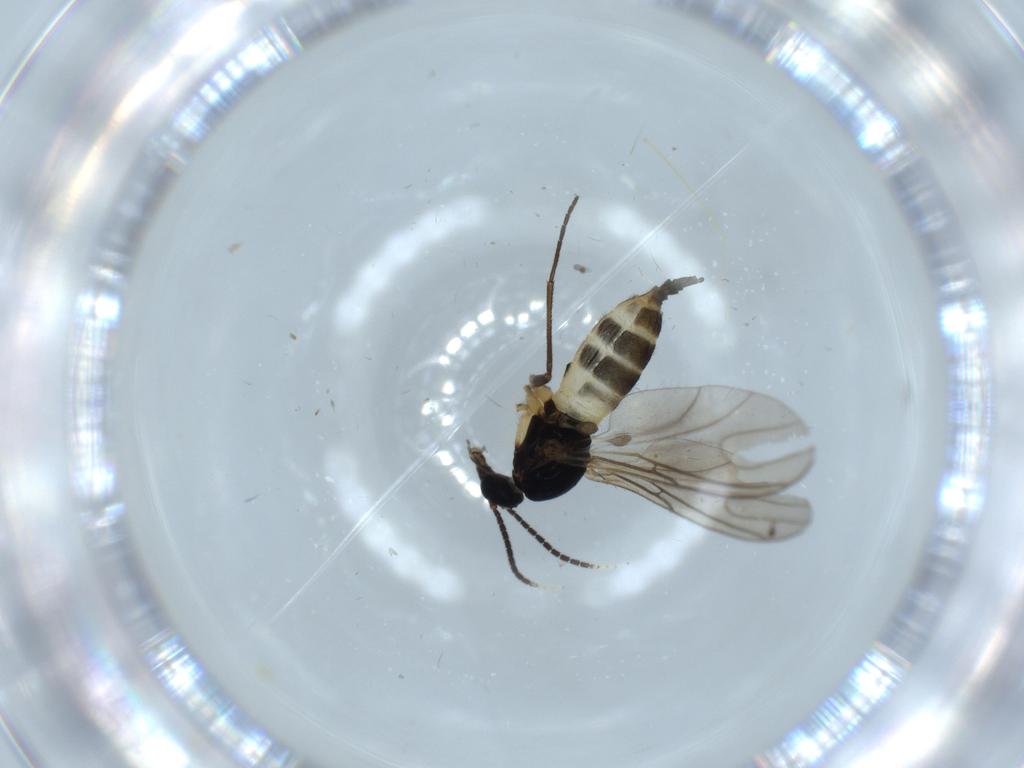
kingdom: Animalia
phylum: Arthropoda
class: Insecta
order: Diptera
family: Sciaridae
